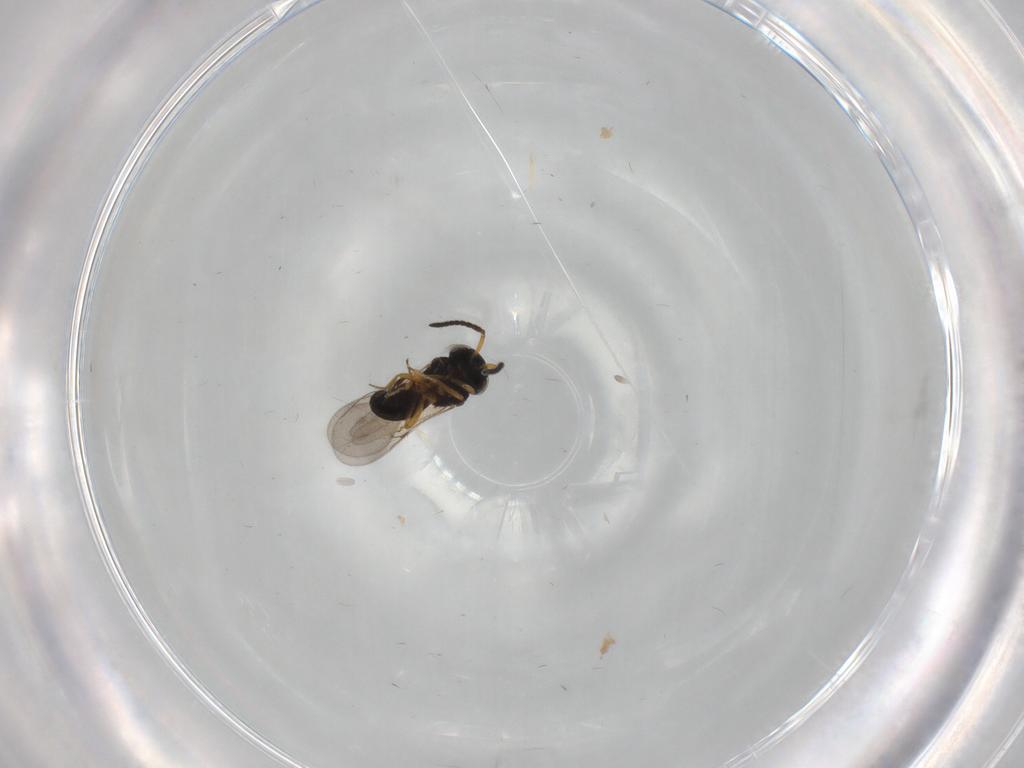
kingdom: Animalia
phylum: Arthropoda
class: Insecta
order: Hymenoptera
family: Scelionidae
